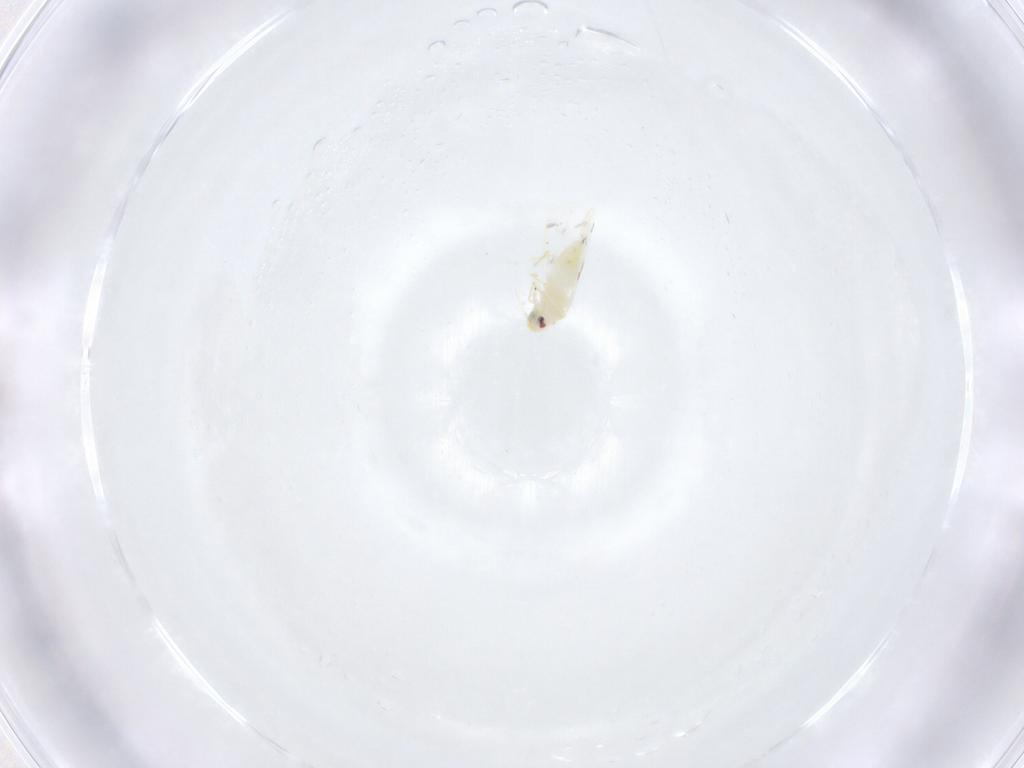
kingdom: Animalia
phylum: Arthropoda
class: Insecta
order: Hemiptera
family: Aleyrodidae
